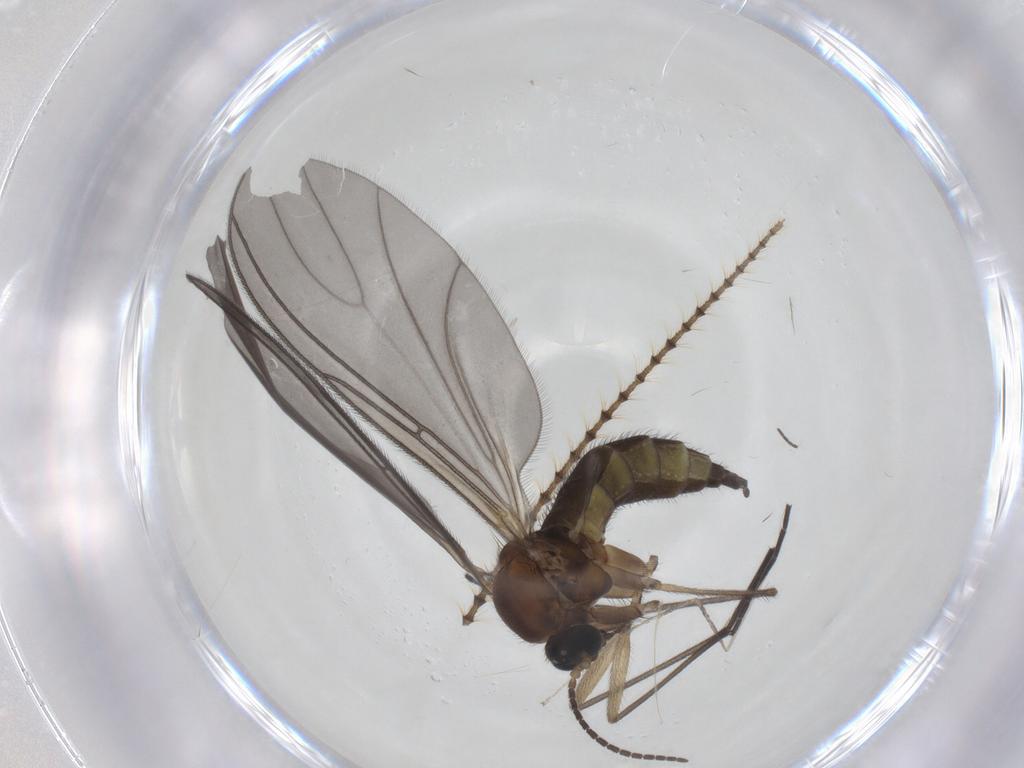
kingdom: Animalia
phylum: Arthropoda
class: Insecta
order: Diptera
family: Sciaridae
